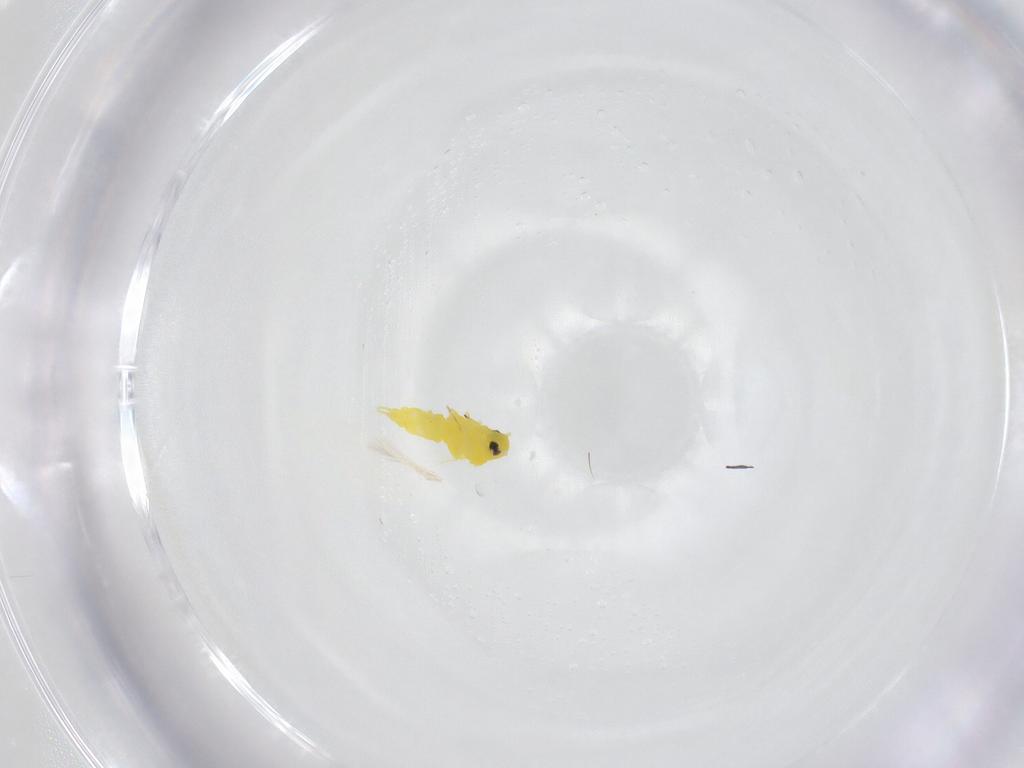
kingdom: Animalia
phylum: Arthropoda
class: Insecta
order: Hemiptera
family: Aleyrodidae
